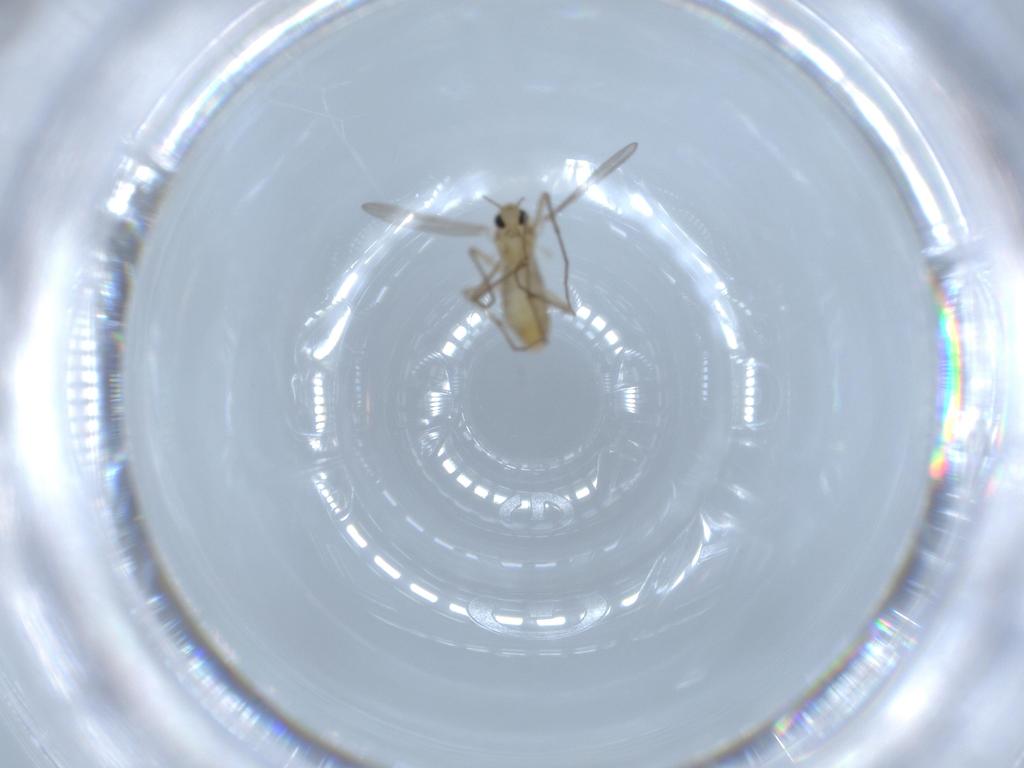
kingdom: Animalia
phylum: Arthropoda
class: Insecta
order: Diptera
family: Chironomidae
